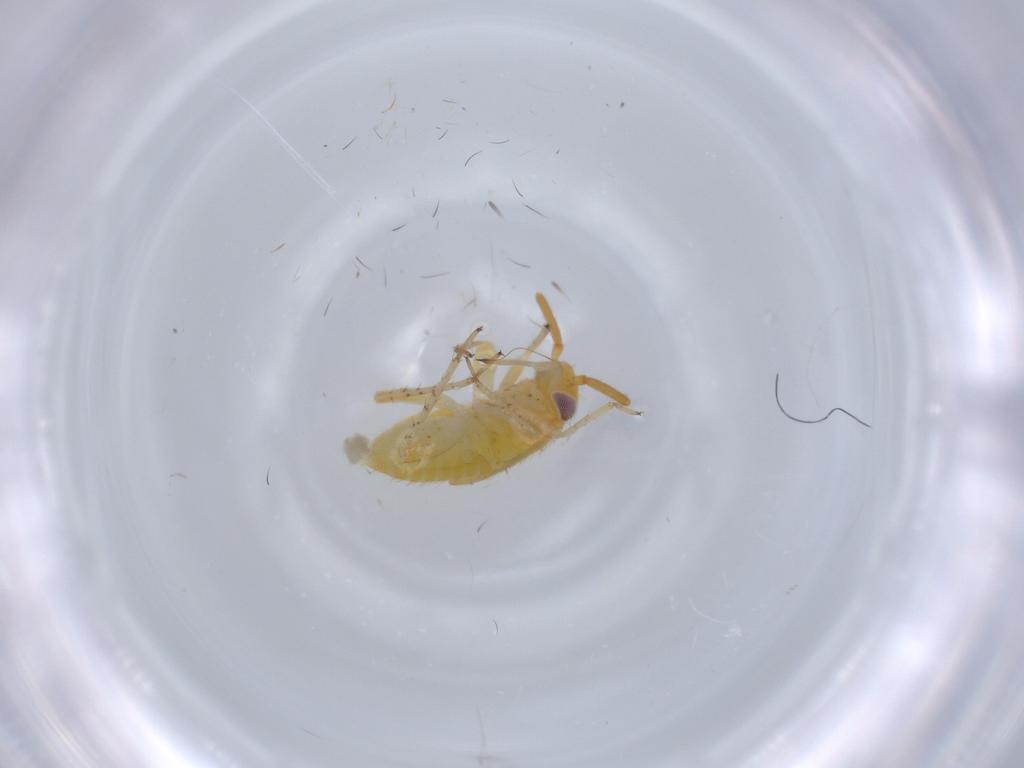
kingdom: Animalia
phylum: Arthropoda
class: Insecta
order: Hemiptera
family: Miridae
